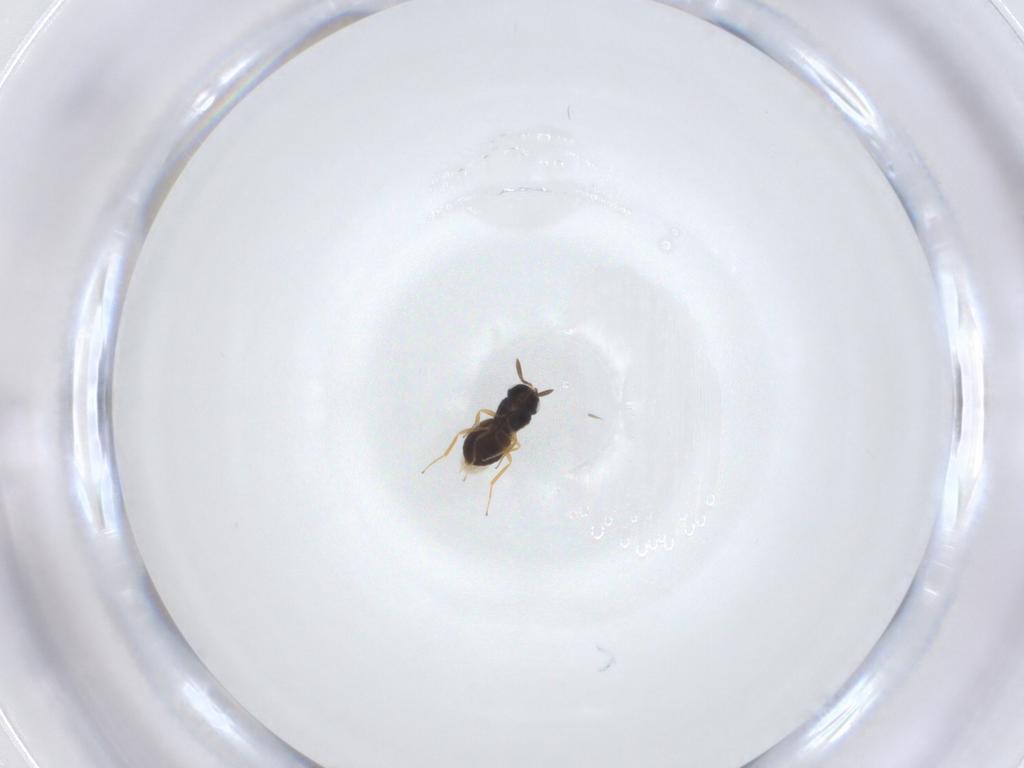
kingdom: Animalia
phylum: Arthropoda
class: Insecta
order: Hymenoptera
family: Scelionidae
